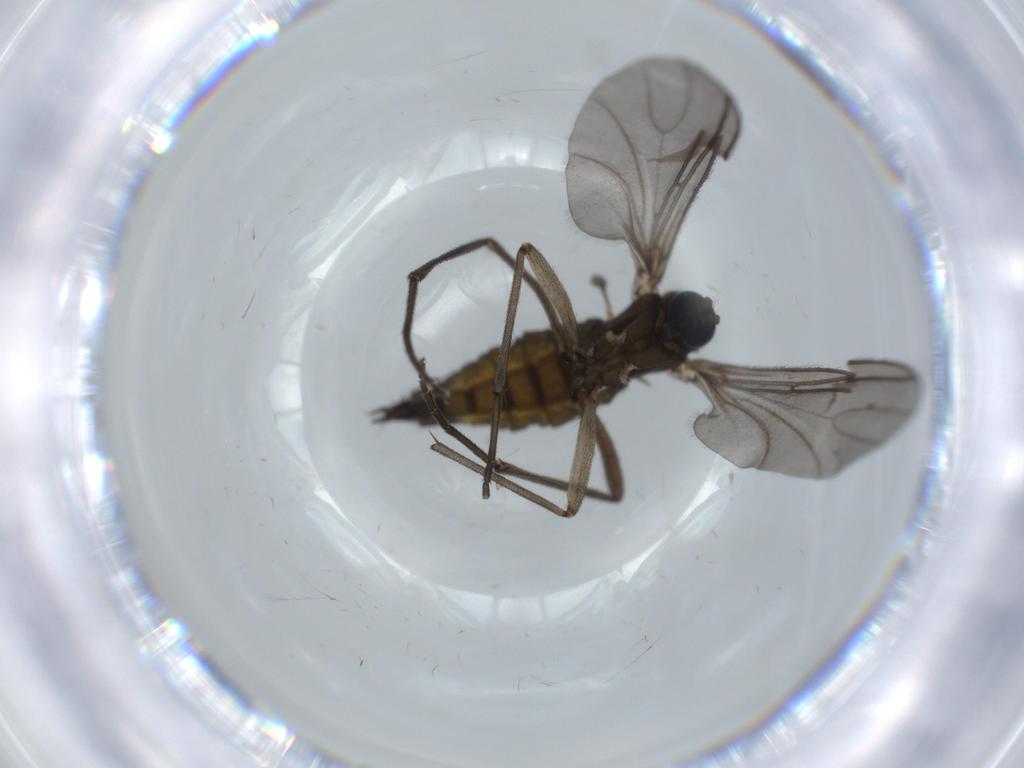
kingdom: Animalia
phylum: Arthropoda
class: Insecta
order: Diptera
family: Sciaridae
